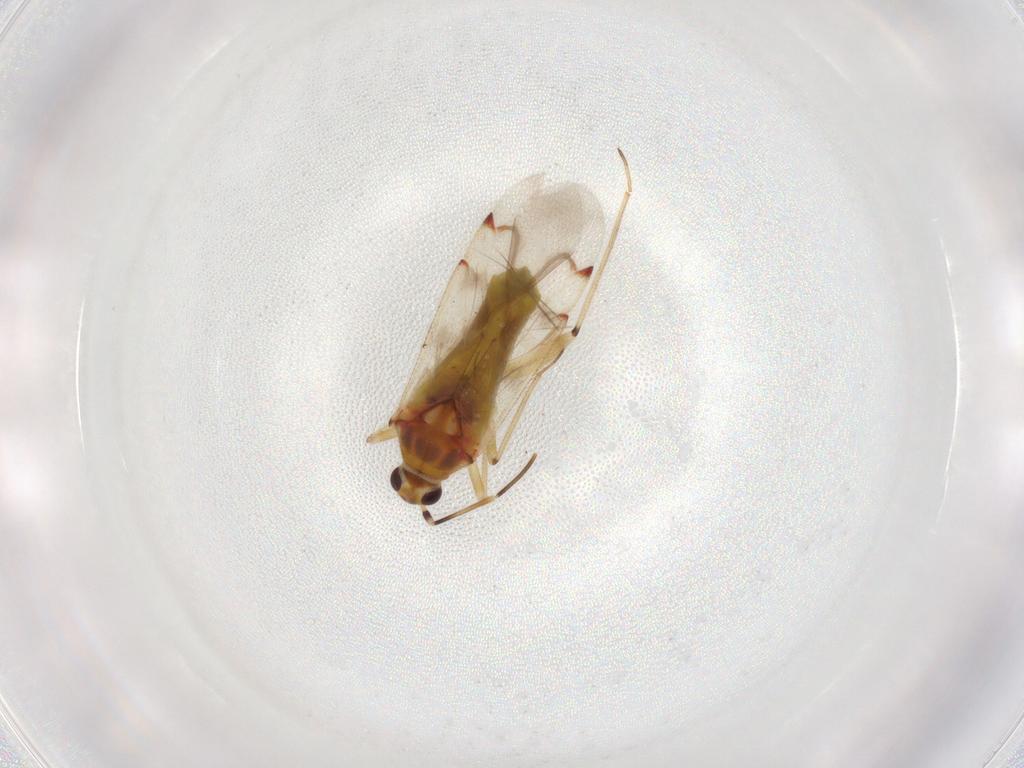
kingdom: Animalia
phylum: Arthropoda
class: Insecta
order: Hemiptera
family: Miridae
